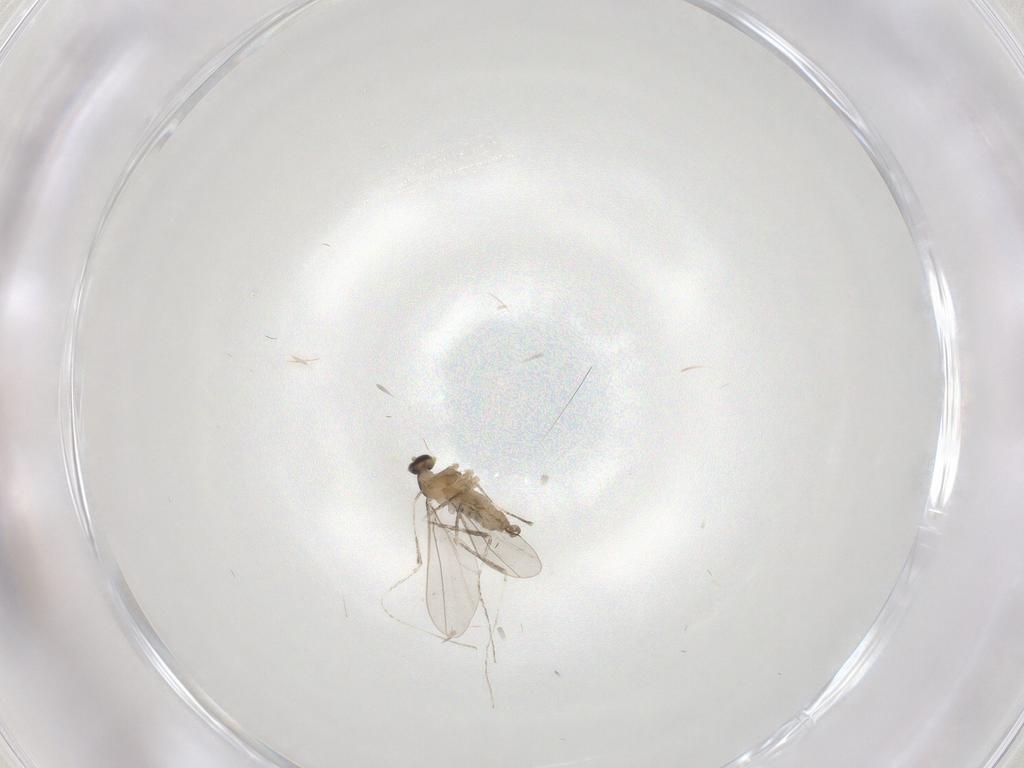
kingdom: Animalia
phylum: Arthropoda
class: Insecta
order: Diptera
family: Cecidomyiidae
